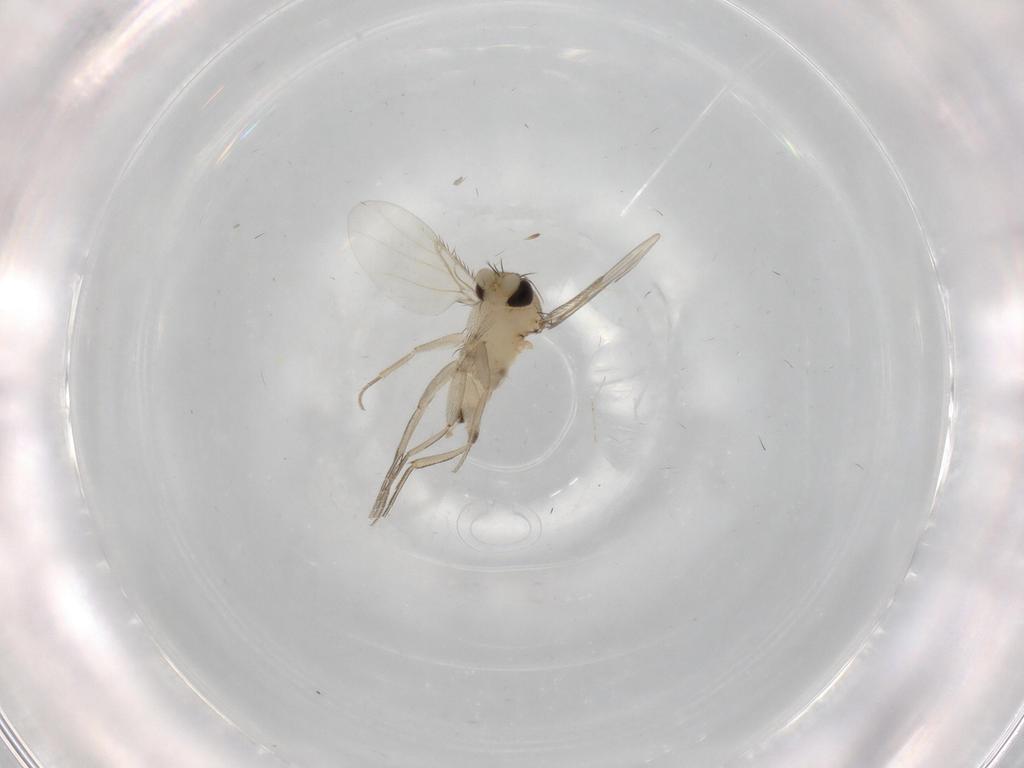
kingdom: Animalia
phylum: Arthropoda
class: Insecta
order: Diptera
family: Phoridae
